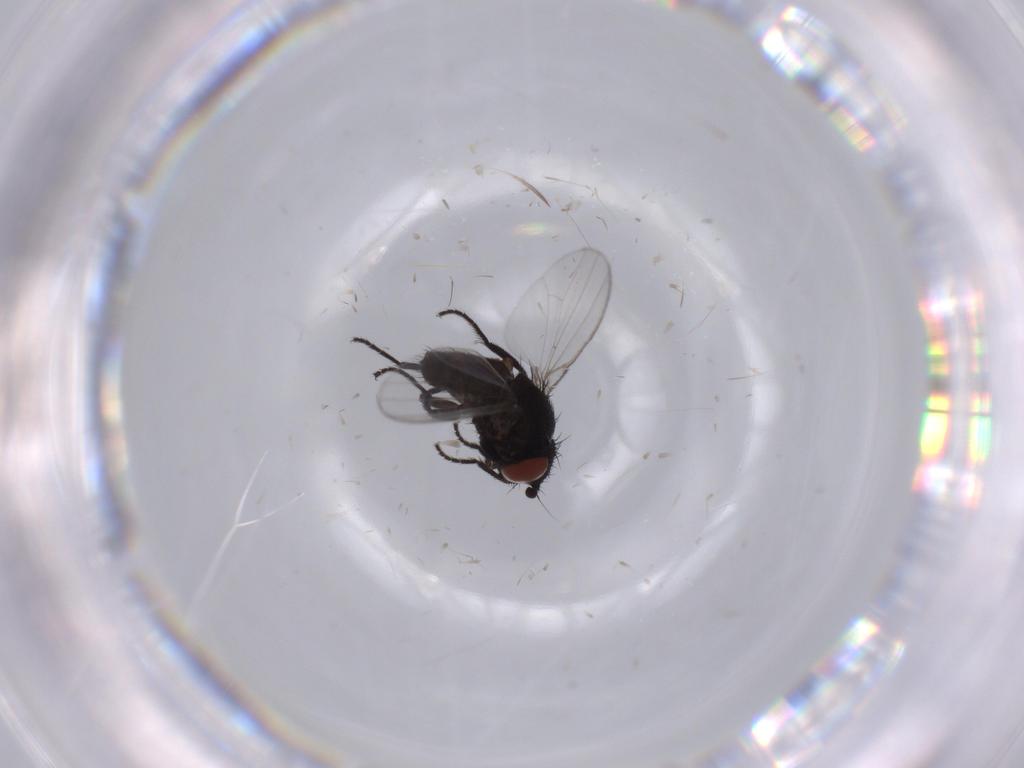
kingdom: Animalia
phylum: Arthropoda
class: Insecta
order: Diptera
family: Milichiidae
